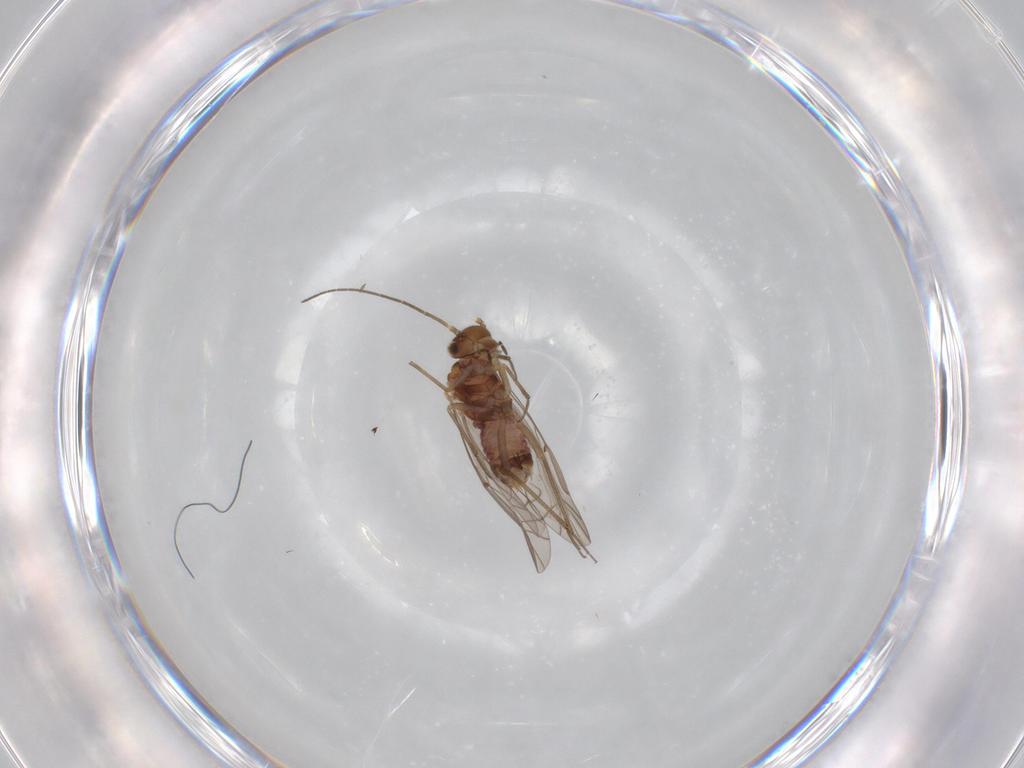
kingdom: Animalia
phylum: Arthropoda
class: Insecta
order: Psocodea
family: Lachesillidae
